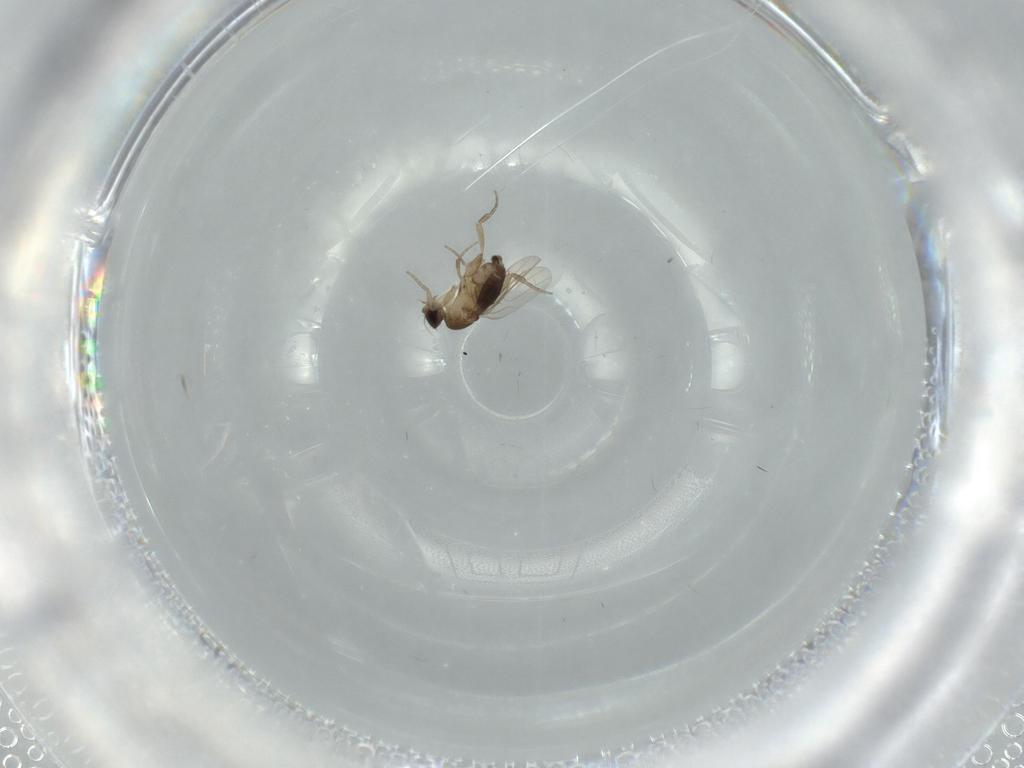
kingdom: Animalia
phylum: Arthropoda
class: Insecta
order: Diptera
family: Phoridae
